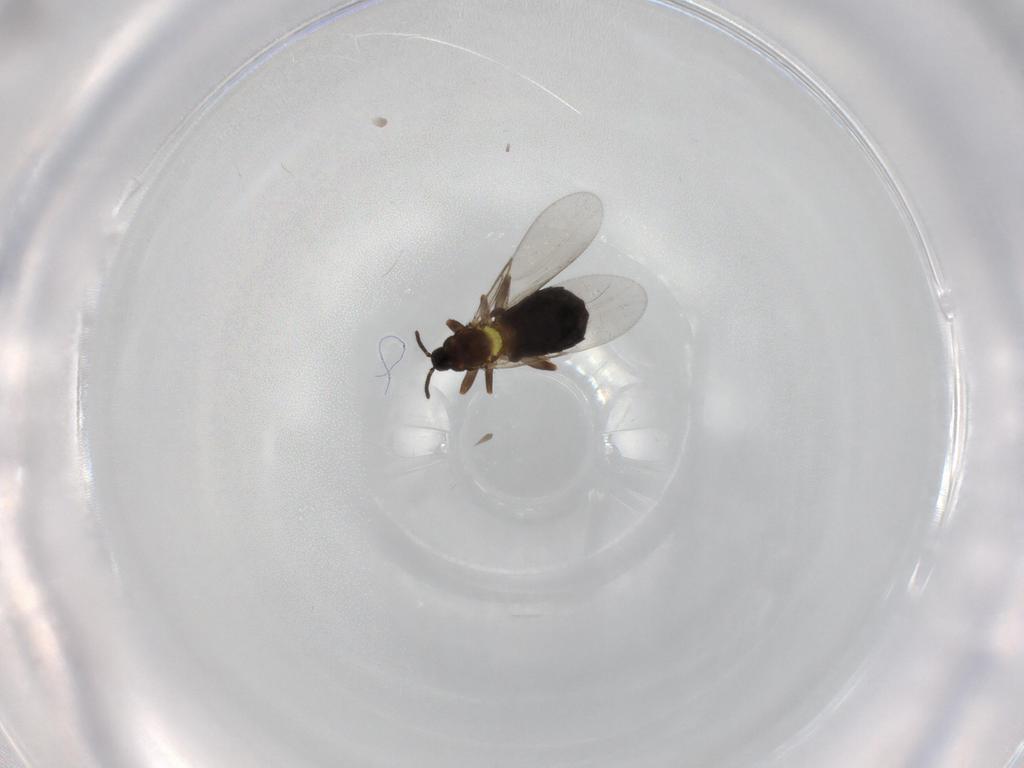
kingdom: Animalia
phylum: Arthropoda
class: Insecta
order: Diptera
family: Scatopsidae
